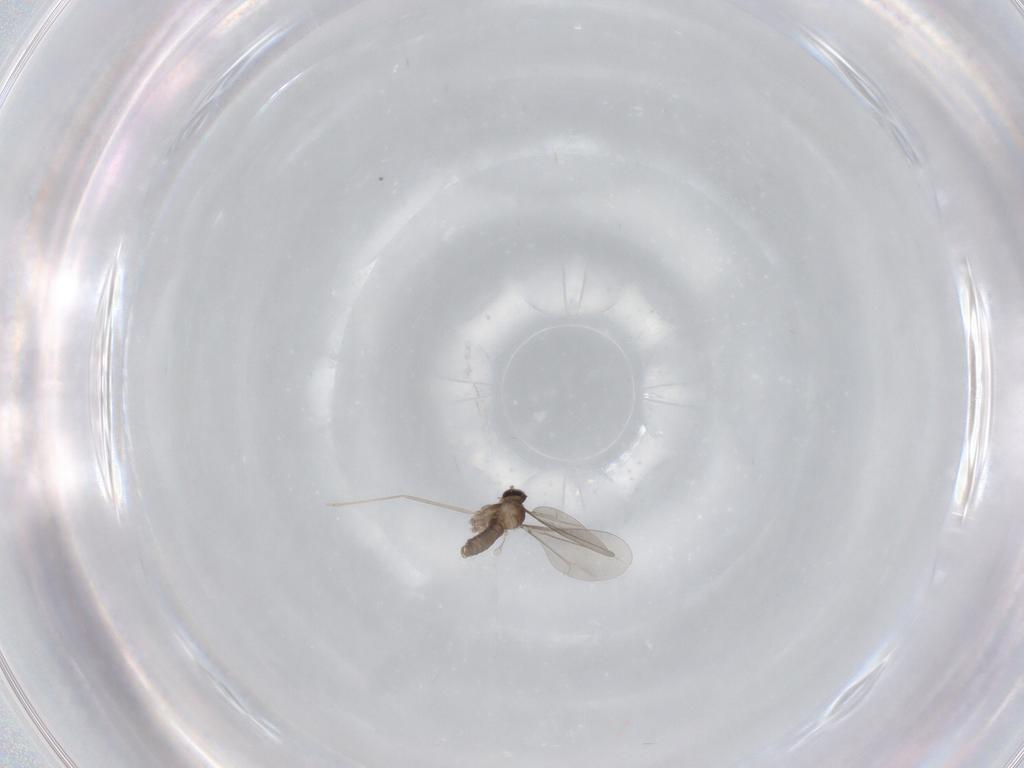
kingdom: Animalia
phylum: Arthropoda
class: Insecta
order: Diptera
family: Cecidomyiidae
